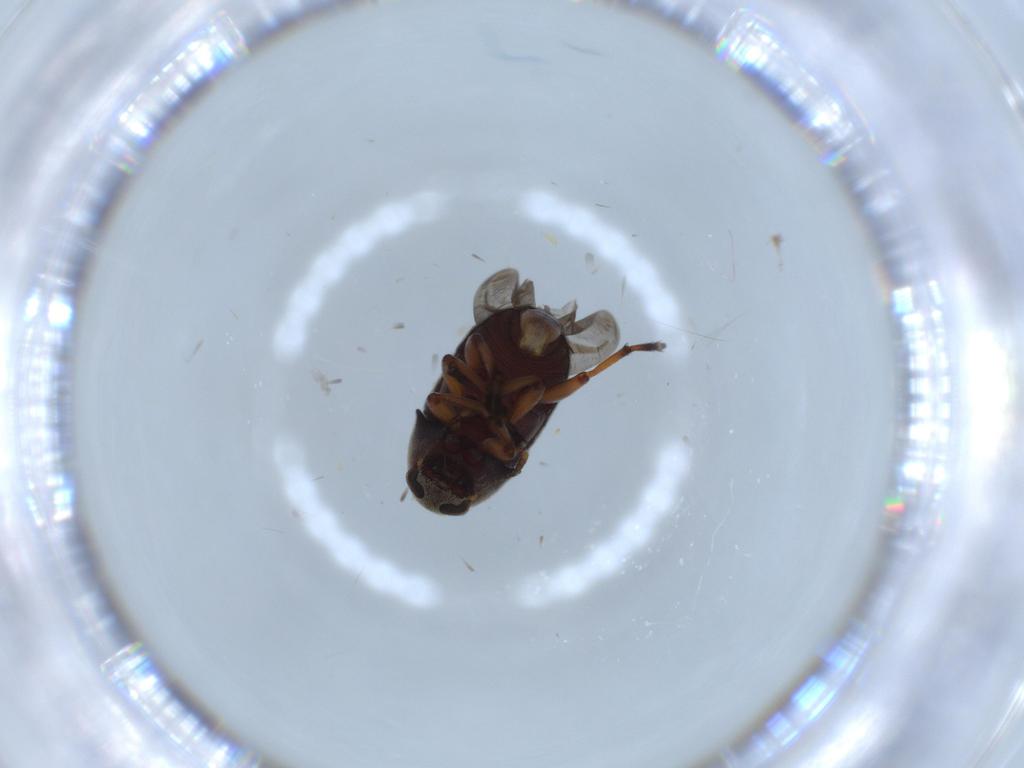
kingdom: Animalia
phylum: Arthropoda
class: Insecta
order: Coleoptera
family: Anthribidae
